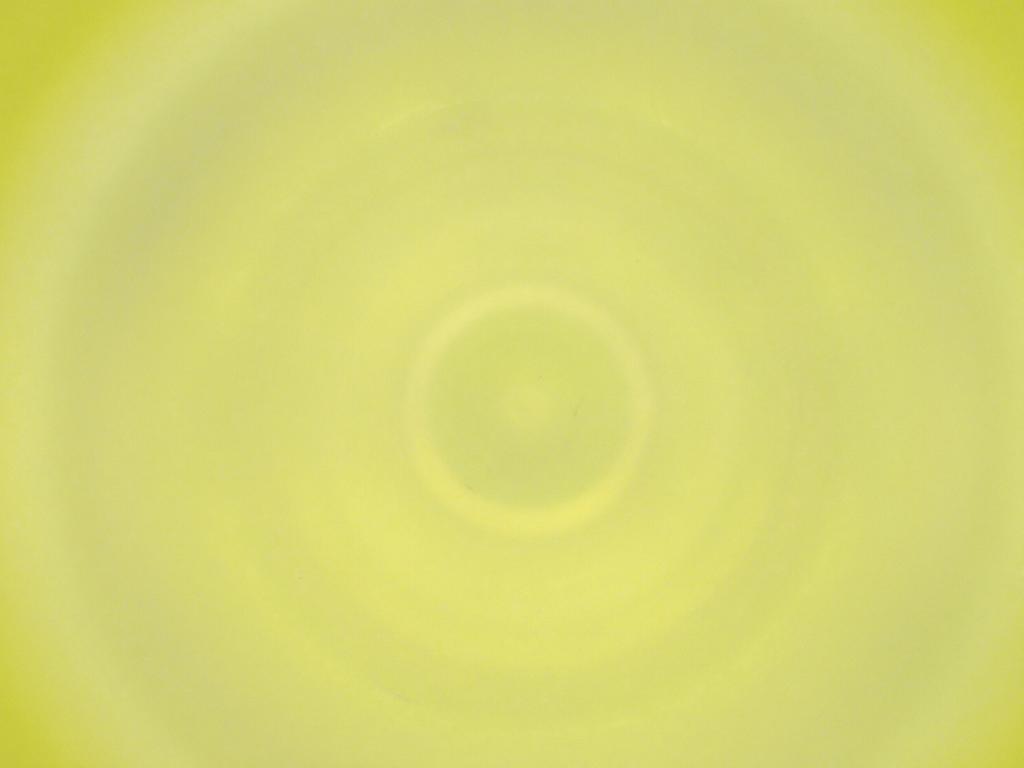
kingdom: Animalia
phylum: Arthropoda
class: Insecta
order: Diptera
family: Cecidomyiidae
